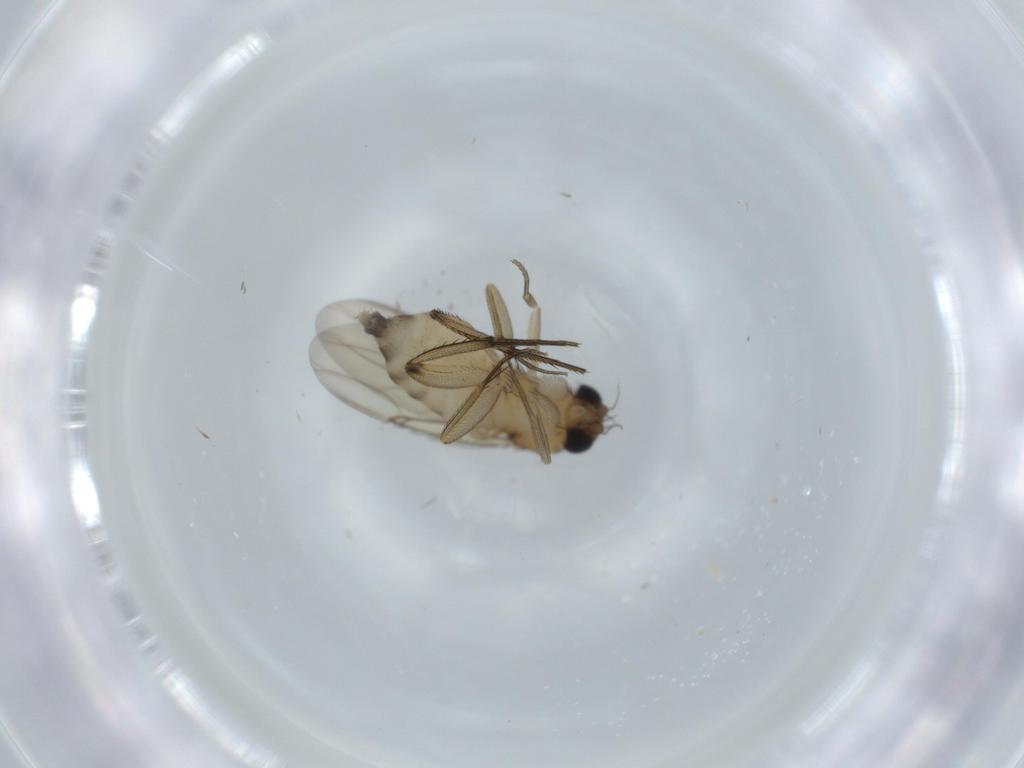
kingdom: Animalia
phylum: Arthropoda
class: Insecta
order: Diptera
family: Phoridae
